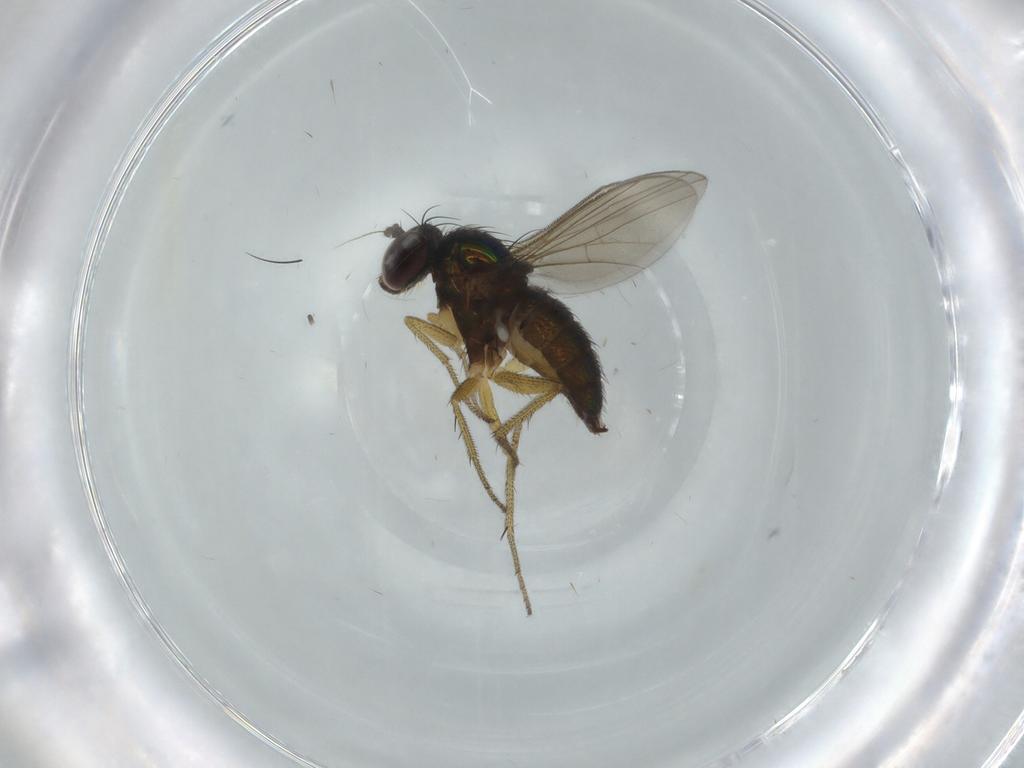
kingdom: Animalia
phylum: Arthropoda
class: Insecta
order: Diptera
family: Dolichopodidae
